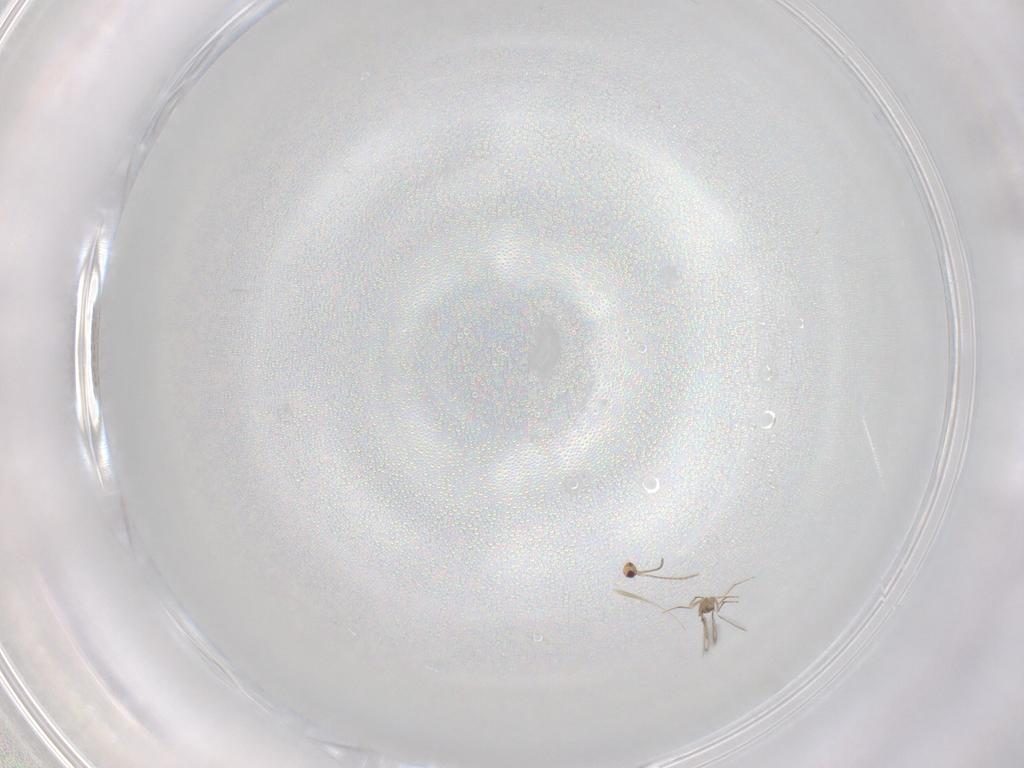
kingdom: Animalia
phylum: Arthropoda
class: Insecta
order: Hymenoptera
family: Mymaridae
